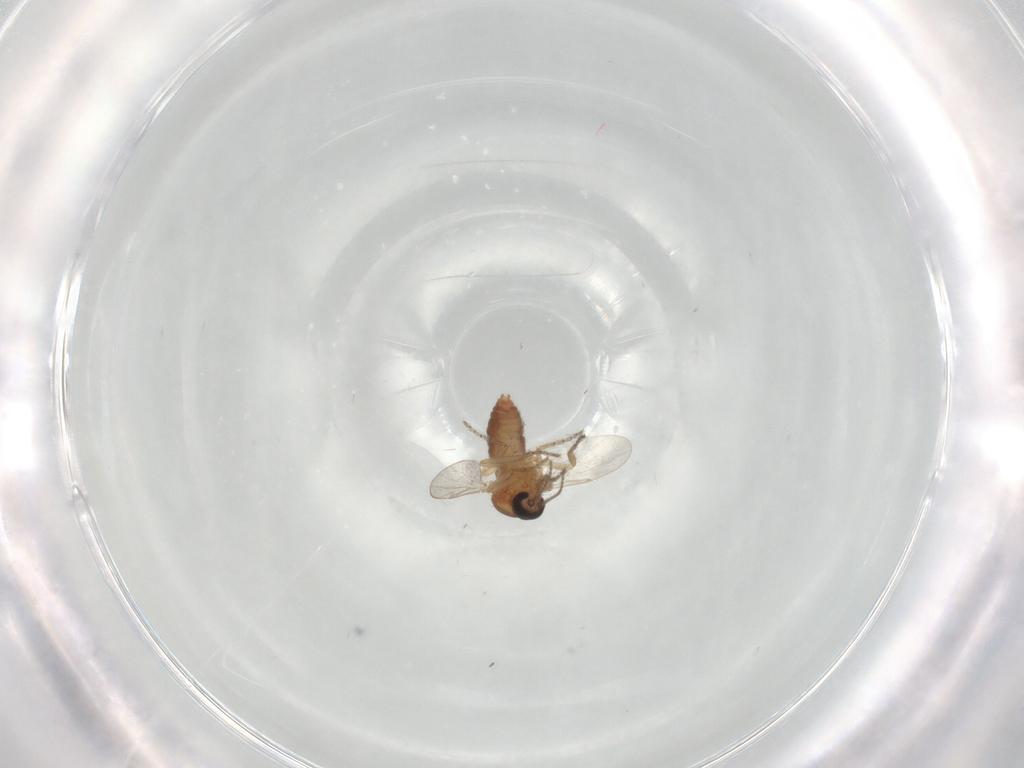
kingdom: Animalia
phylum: Arthropoda
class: Insecta
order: Diptera
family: Ceratopogonidae
